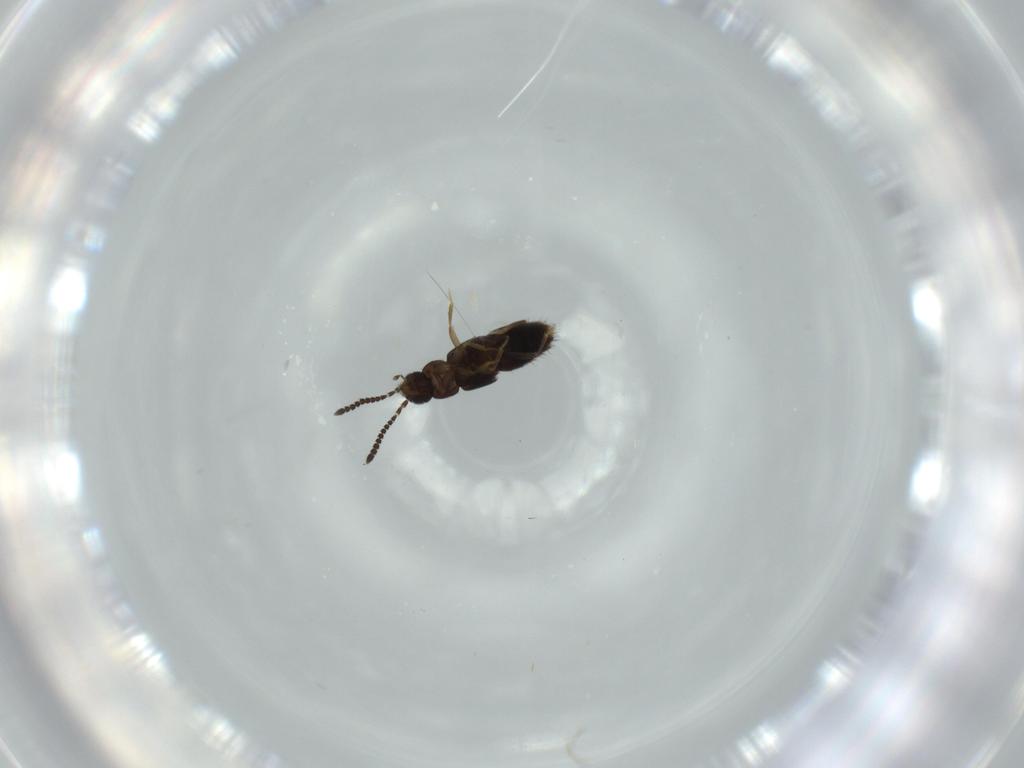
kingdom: Animalia
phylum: Arthropoda
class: Insecta
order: Coleoptera
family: Staphylinidae
